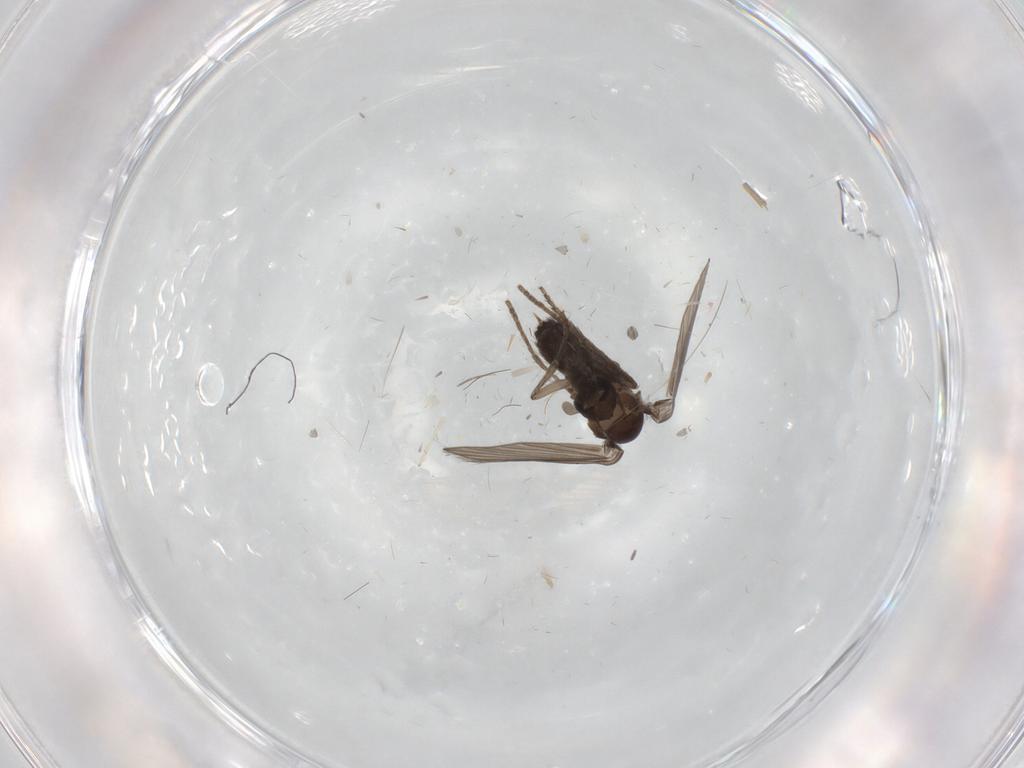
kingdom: Animalia
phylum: Arthropoda
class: Insecta
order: Diptera
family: Chironomidae
